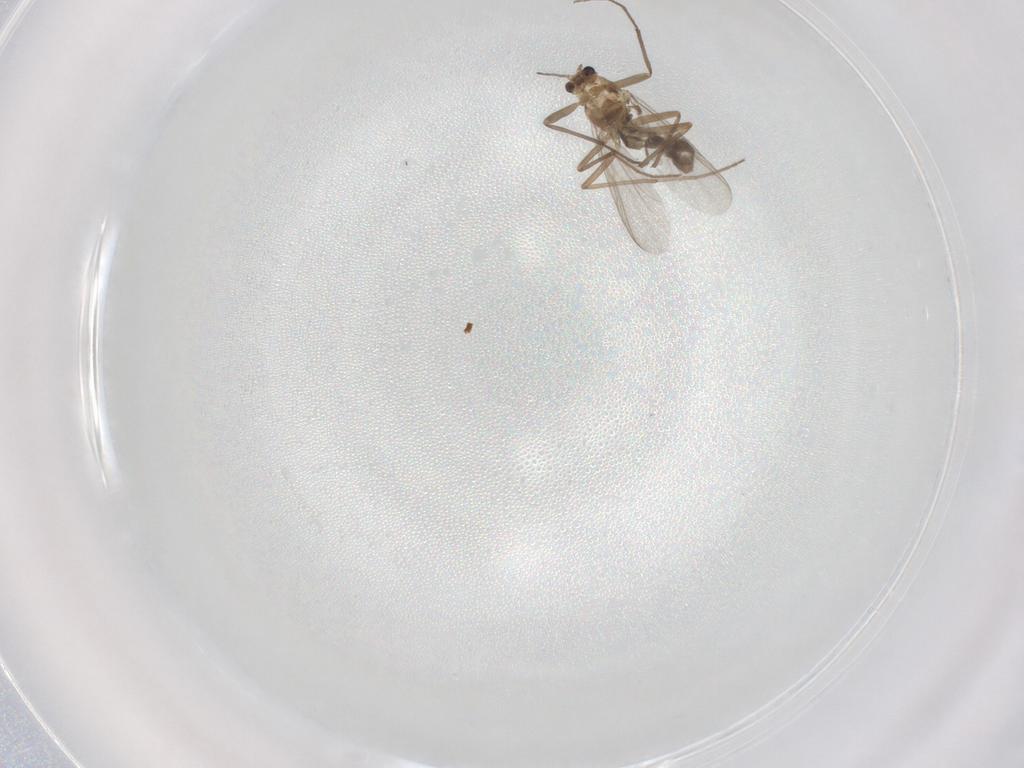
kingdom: Animalia
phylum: Arthropoda
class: Insecta
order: Diptera
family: Chironomidae
